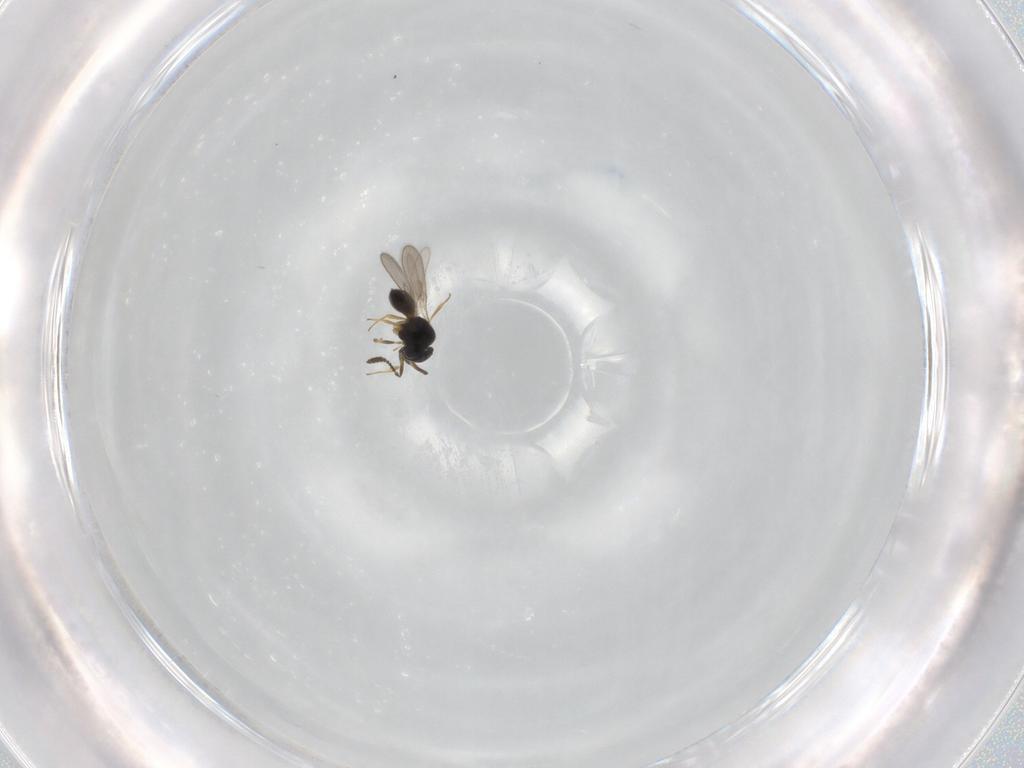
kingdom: Animalia
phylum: Arthropoda
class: Insecta
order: Hymenoptera
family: Scelionidae
